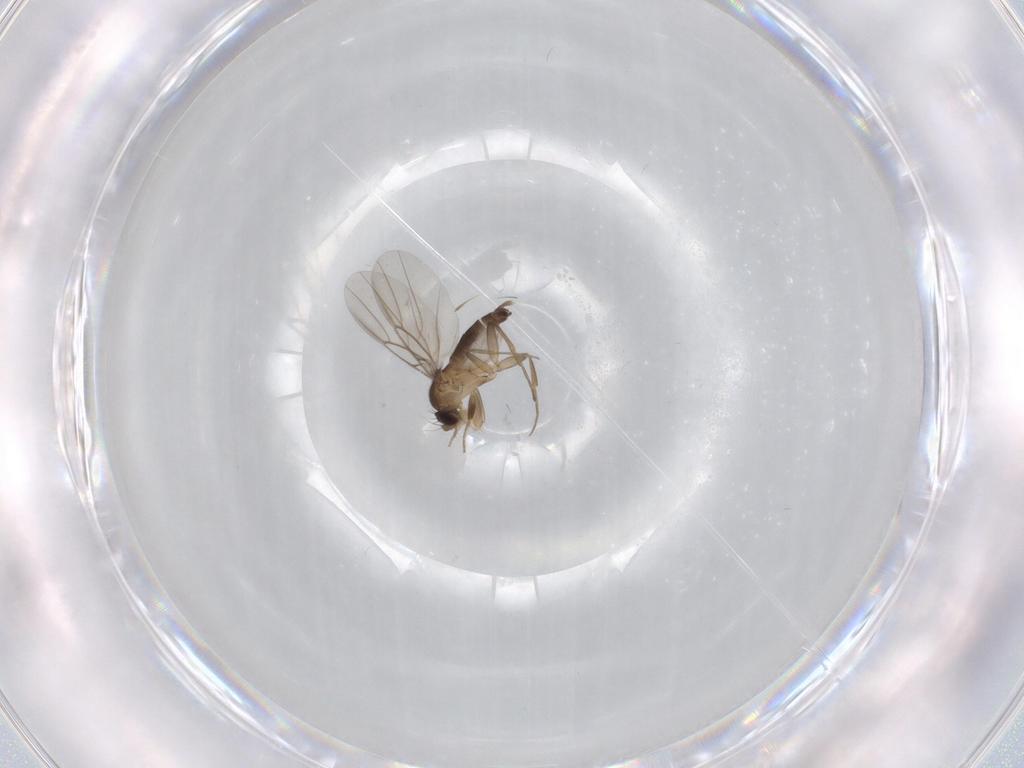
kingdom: Animalia
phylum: Arthropoda
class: Insecta
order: Diptera
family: Phoridae
